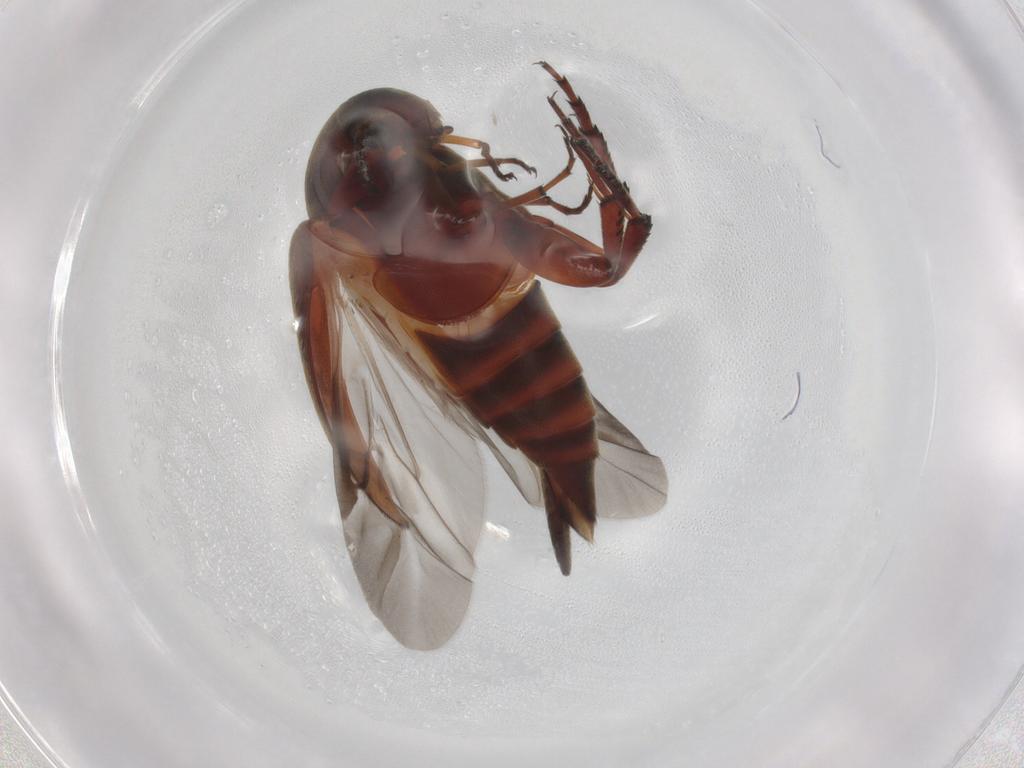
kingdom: Animalia
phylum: Arthropoda
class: Insecta
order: Coleoptera
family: Mordellidae
